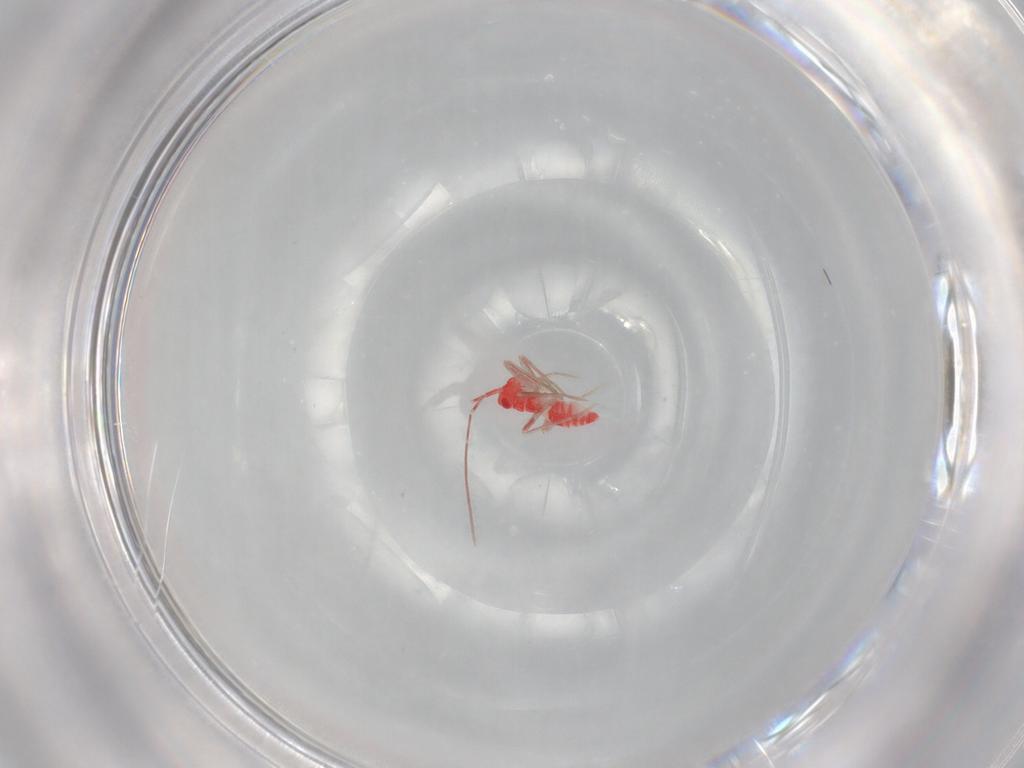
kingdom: Animalia
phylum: Arthropoda
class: Insecta
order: Hemiptera
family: Miridae
